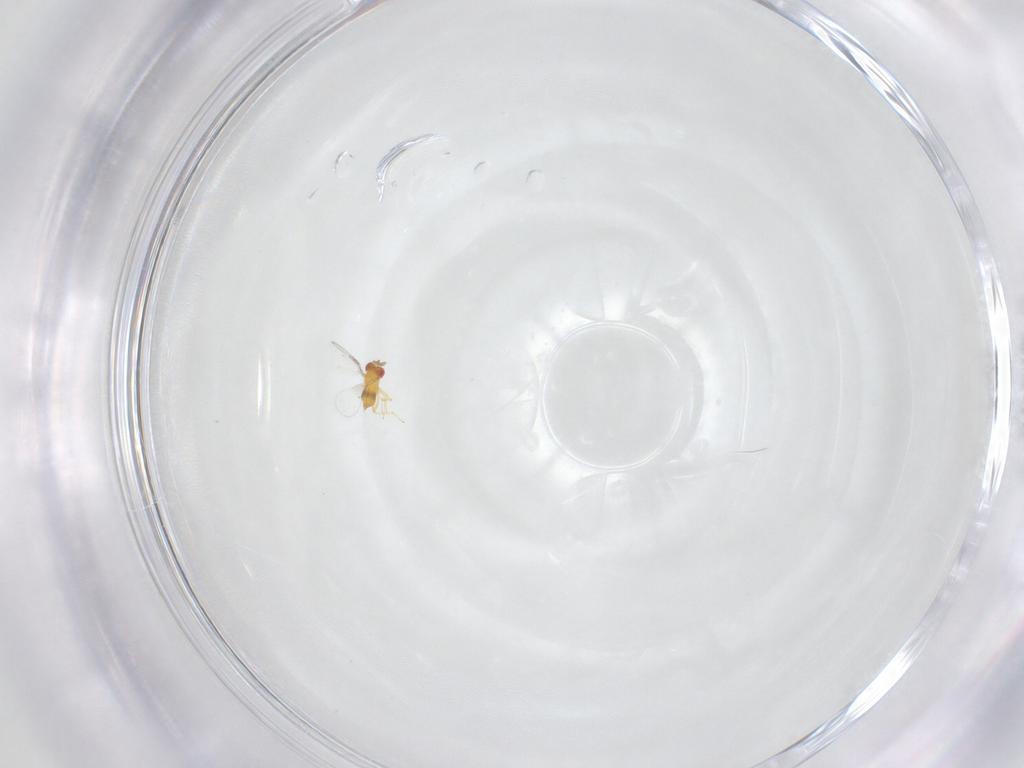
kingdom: Animalia
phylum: Arthropoda
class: Insecta
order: Hymenoptera
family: Trichogrammatidae
